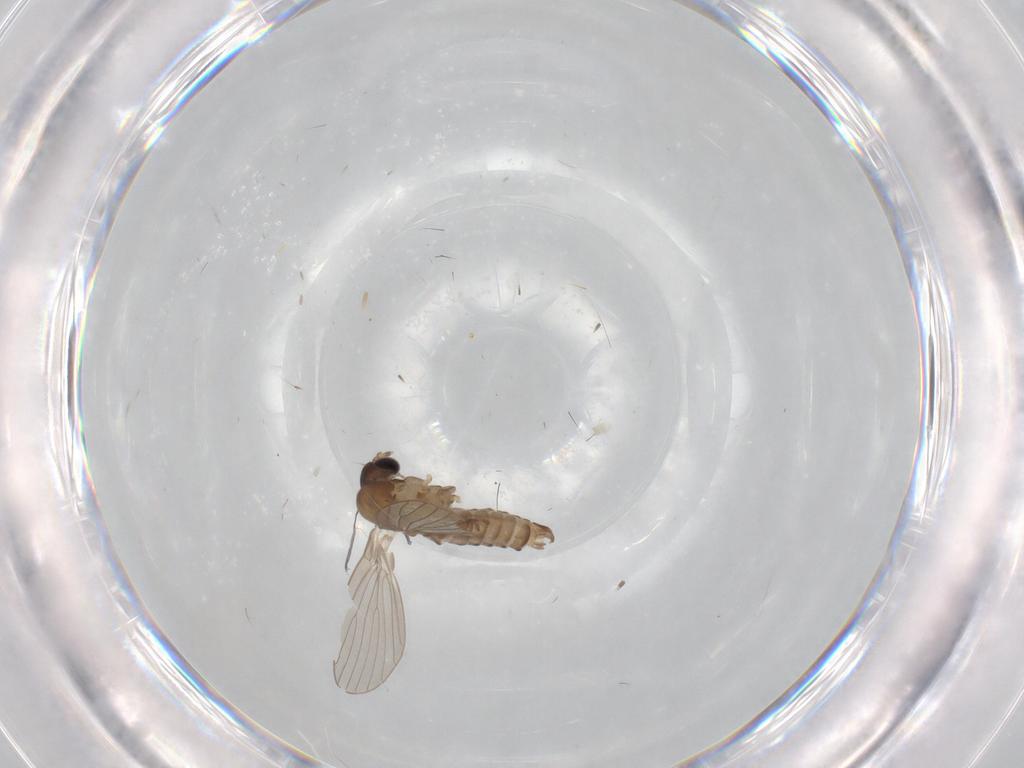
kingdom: Animalia
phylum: Arthropoda
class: Insecta
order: Diptera
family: Psychodidae
